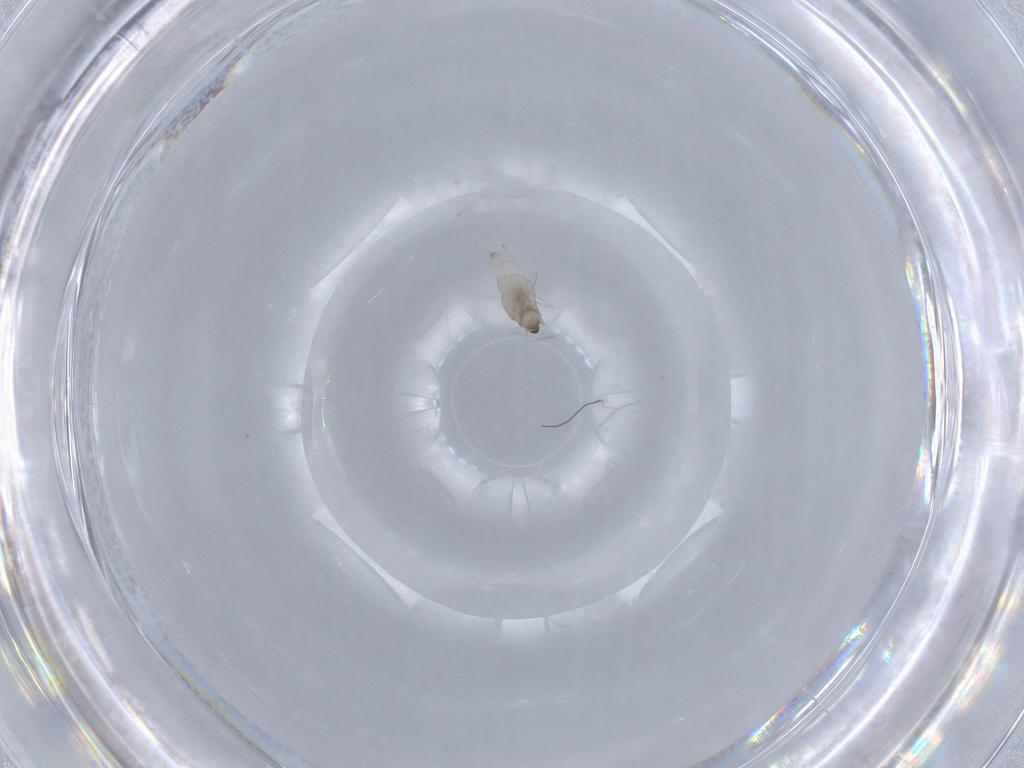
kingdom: Animalia
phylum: Arthropoda
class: Insecta
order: Diptera
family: Cecidomyiidae
